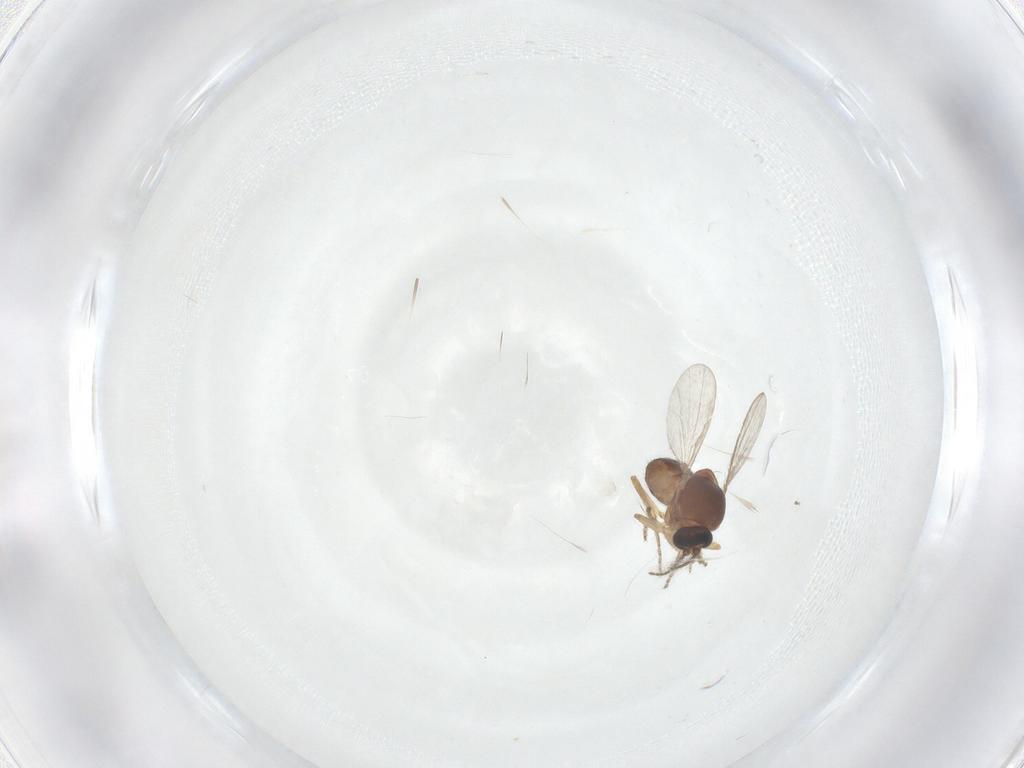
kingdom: Animalia
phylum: Arthropoda
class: Insecta
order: Diptera
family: Ceratopogonidae
